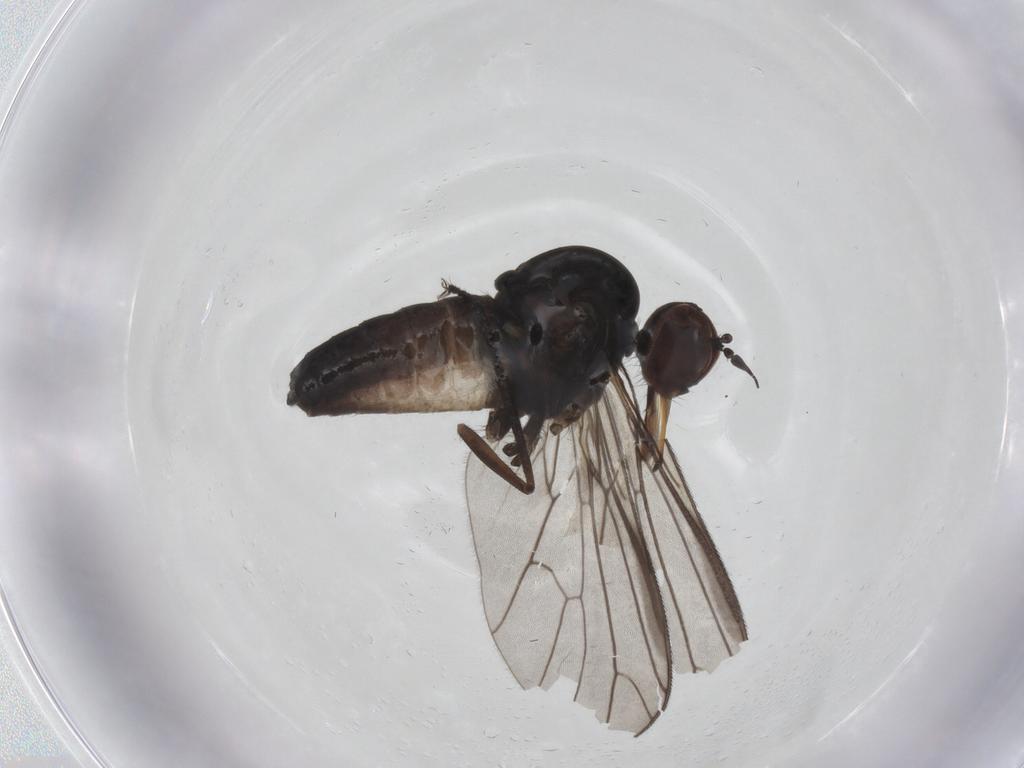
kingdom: Animalia
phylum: Arthropoda
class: Insecta
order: Diptera
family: Empididae
